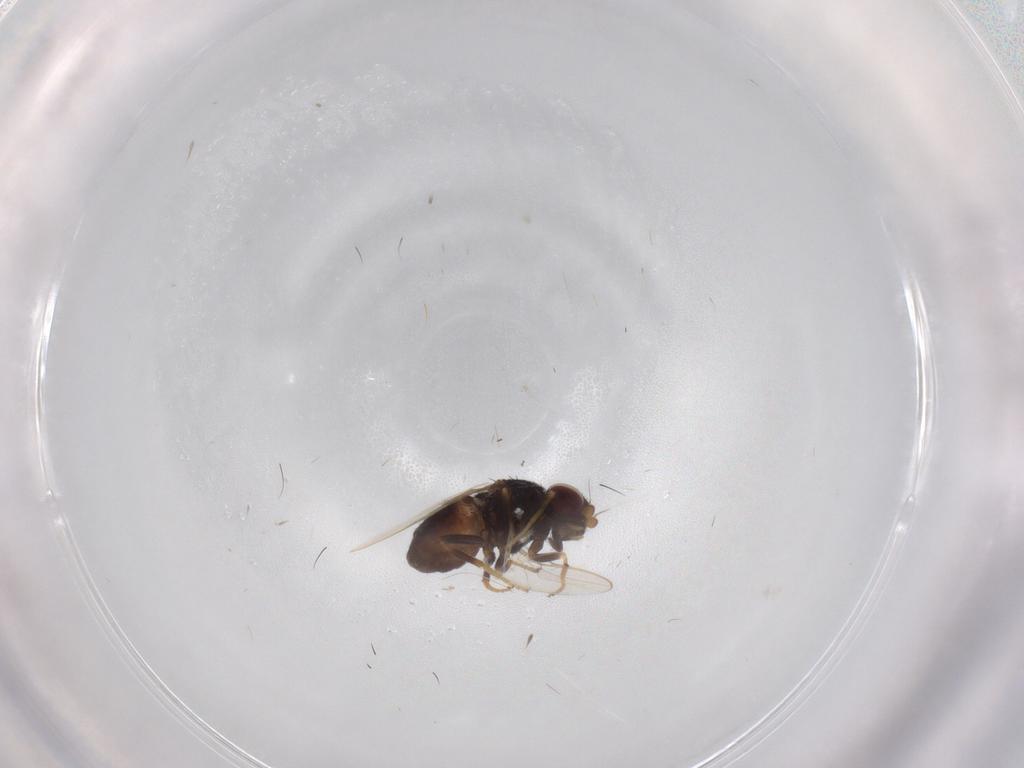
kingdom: Animalia
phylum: Arthropoda
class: Insecta
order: Diptera
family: Chloropidae
